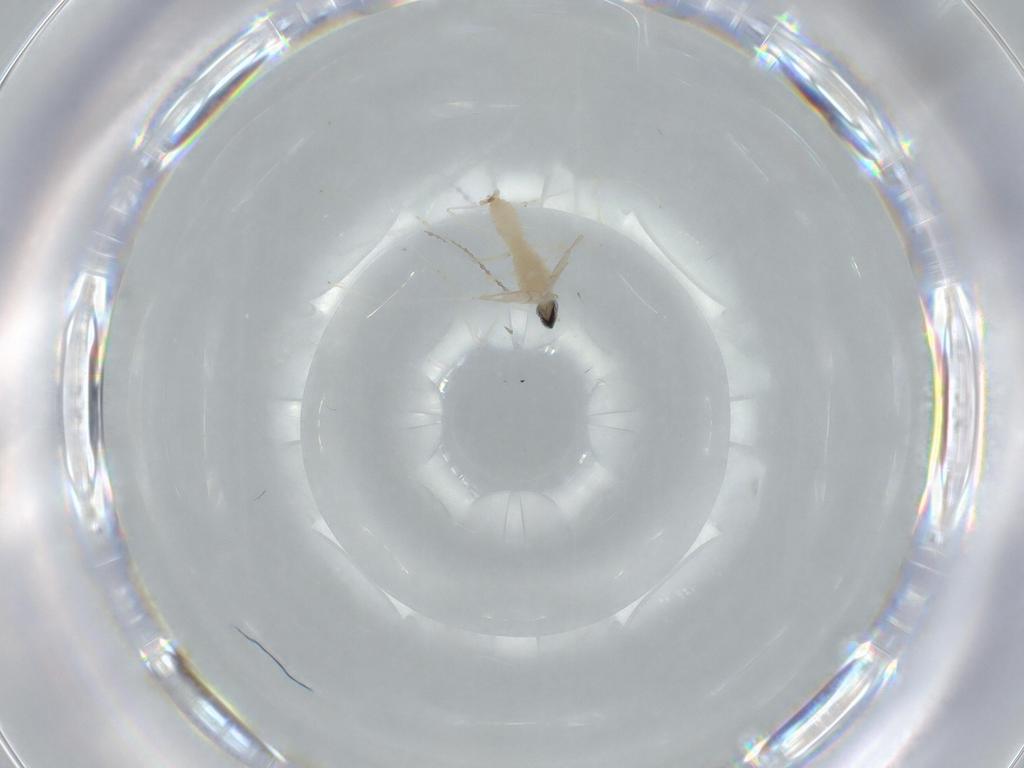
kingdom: Animalia
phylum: Arthropoda
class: Insecta
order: Diptera
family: Cecidomyiidae
